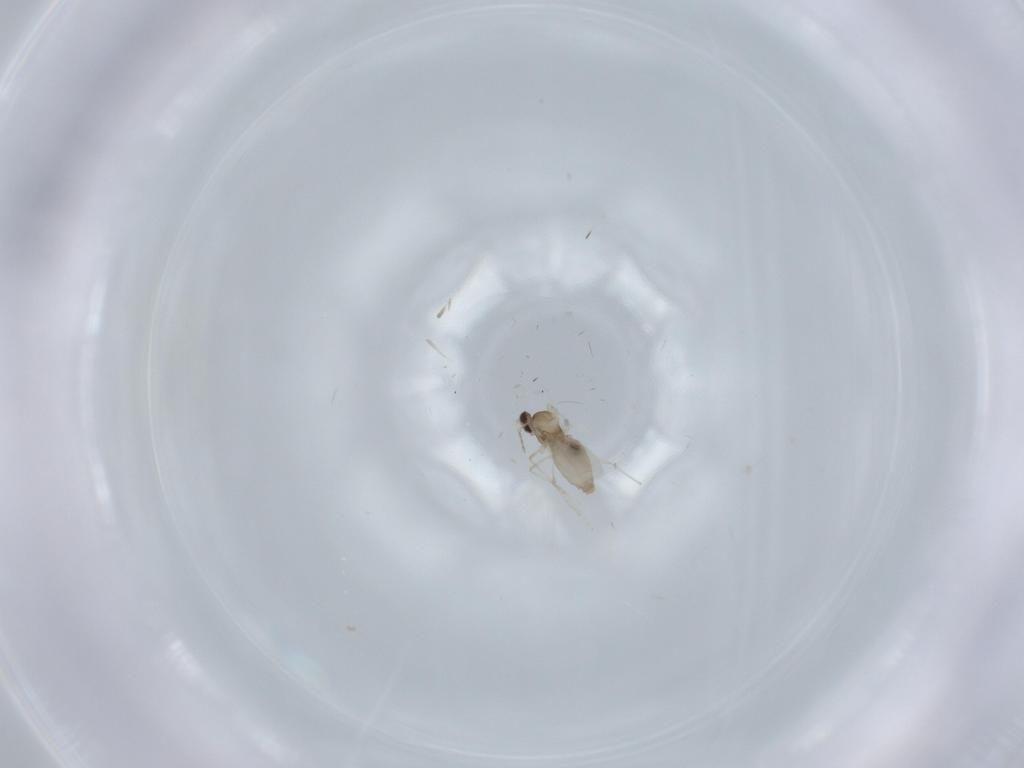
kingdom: Animalia
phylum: Arthropoda
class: Insecta
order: Diptera
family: Cecidomyiidae
